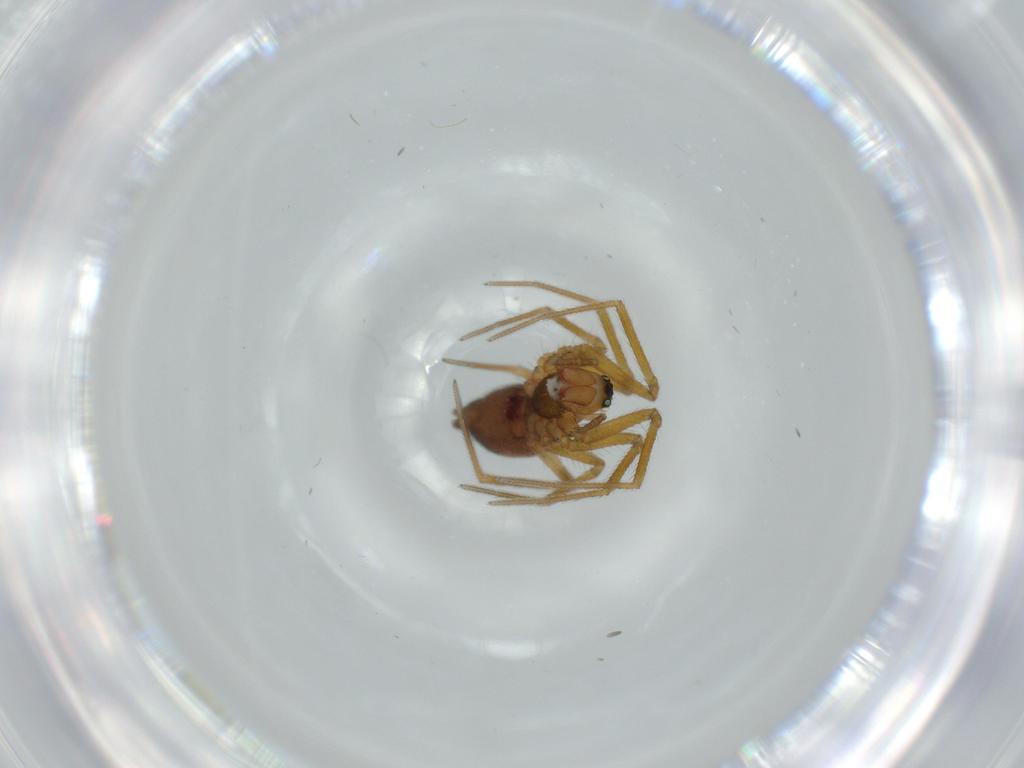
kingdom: Animalia
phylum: Arthropoda
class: Arachnida
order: Araneae
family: Linyphiidae
